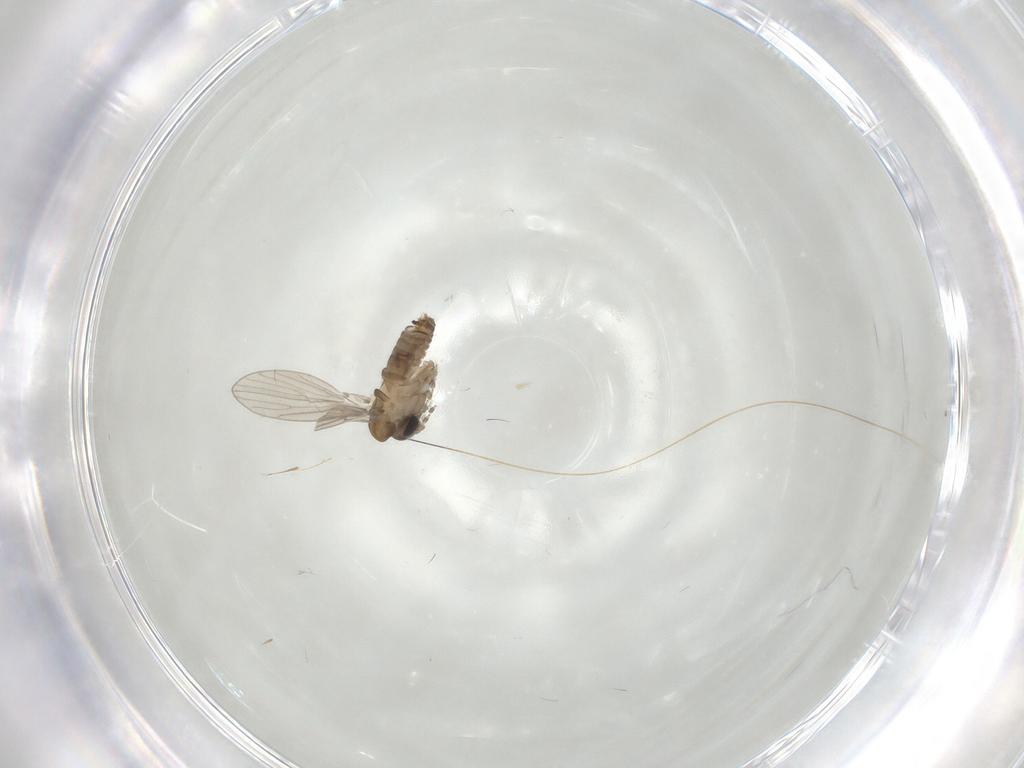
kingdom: Animalia
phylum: Arthropoda
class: Insecta
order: Diptera
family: Psychodidae
